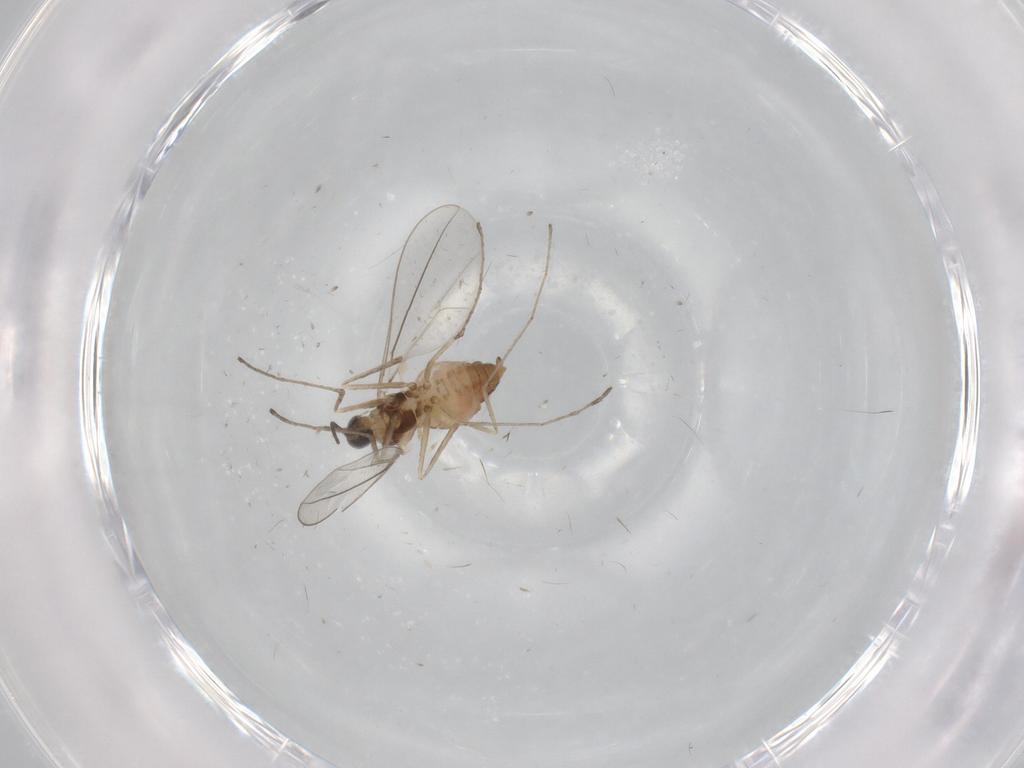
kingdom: Animalia
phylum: Arthropoda
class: Insecta
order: Diptera
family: Cecidomyiidae
